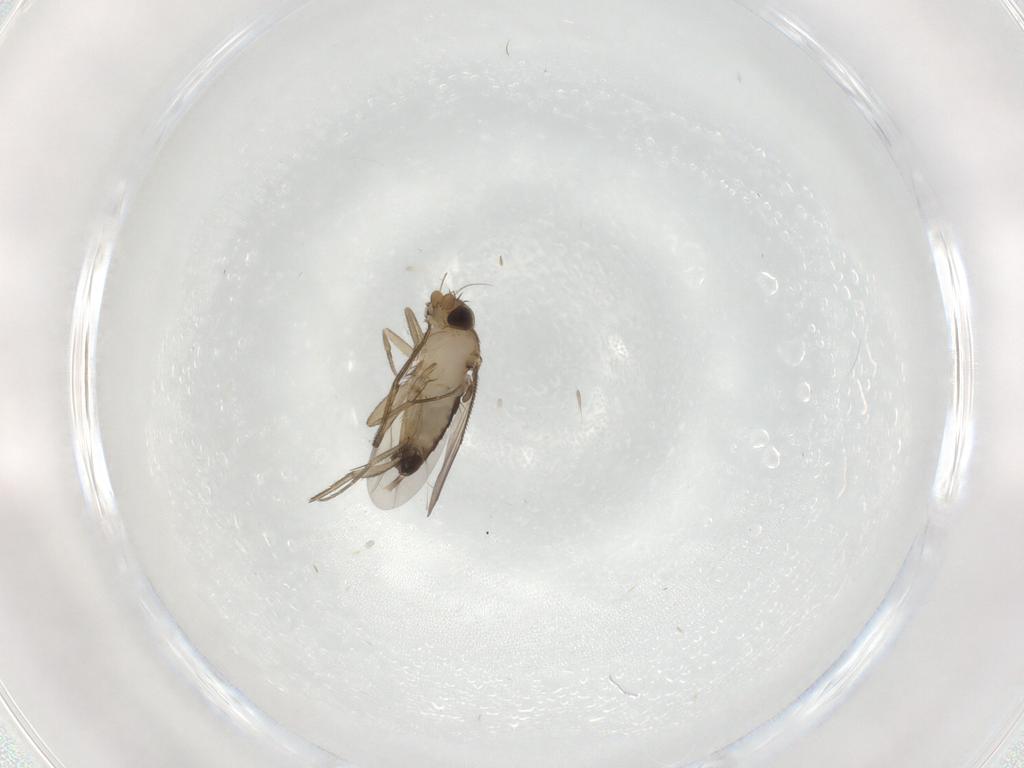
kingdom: Animalia
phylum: Arthropoda
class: Insecta
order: Diptera
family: Phoridae
